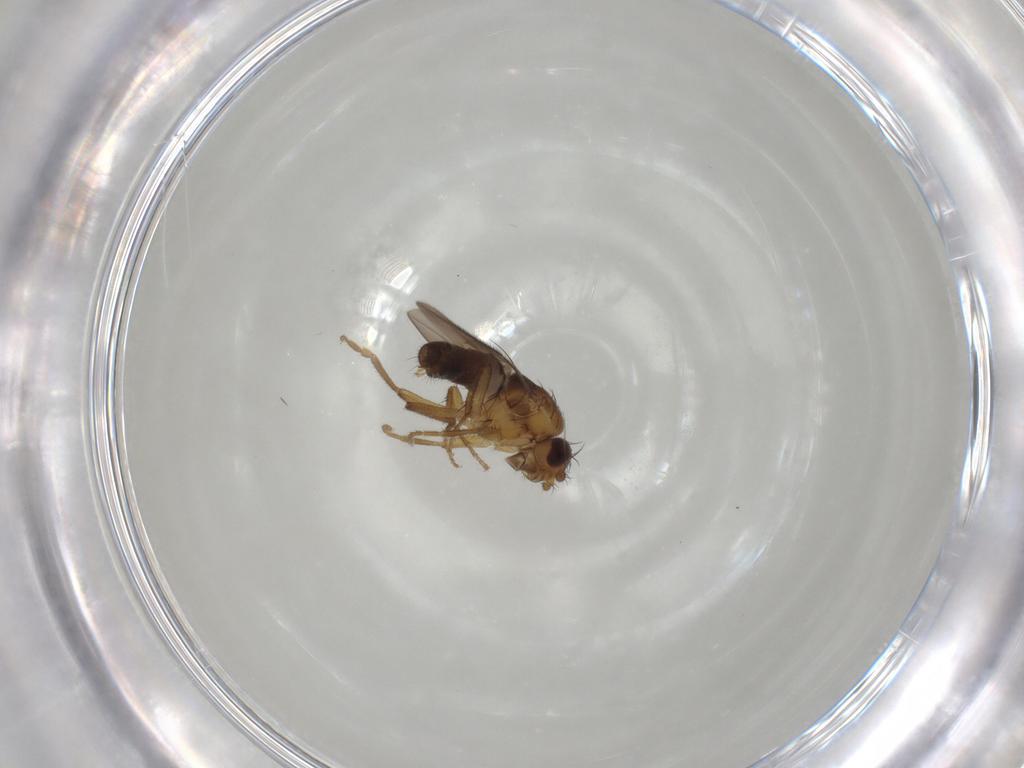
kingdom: Animalia
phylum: Arthropoda
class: Insecta
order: Diptera
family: Sphaeroceridae
